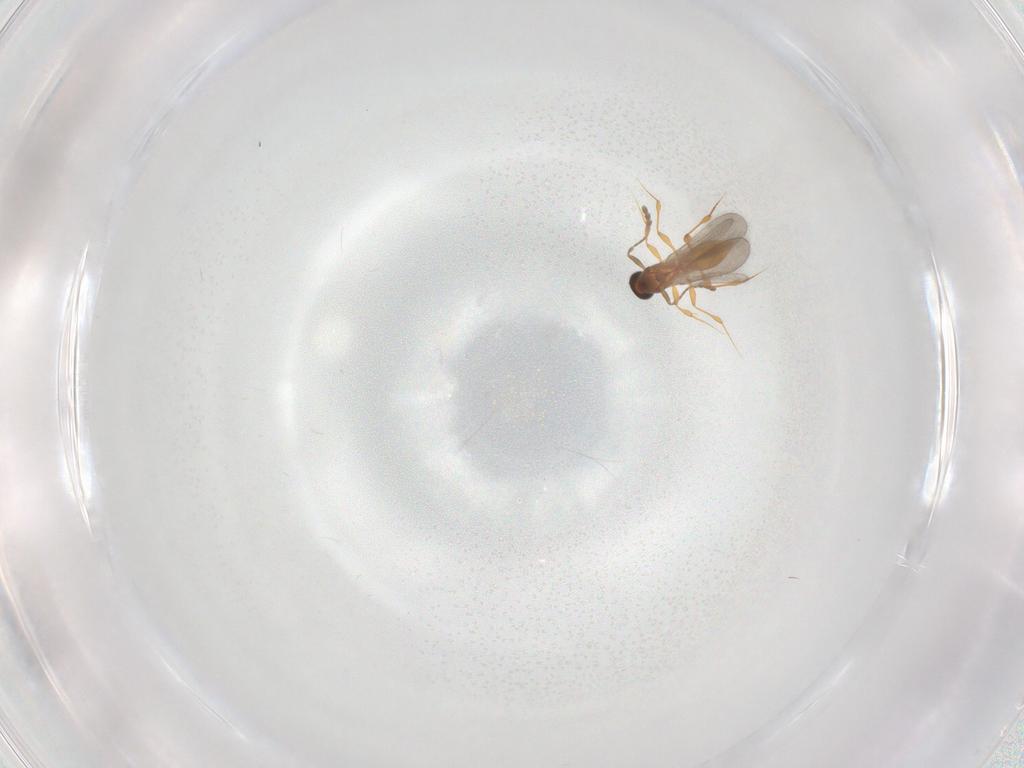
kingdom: Animalia
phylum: Arthropoda
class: Insecta
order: Hymenoptera
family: Platygastridae
